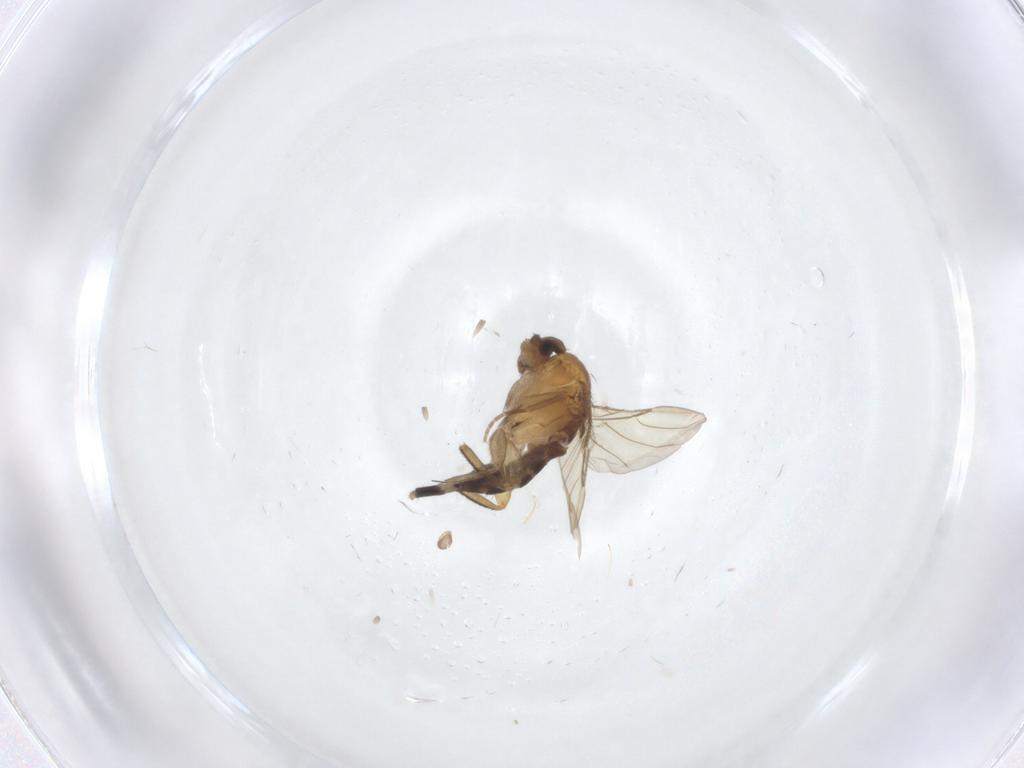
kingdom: Animalia
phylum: Arthropoda
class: Insecta
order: Diptera
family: Phoridae
